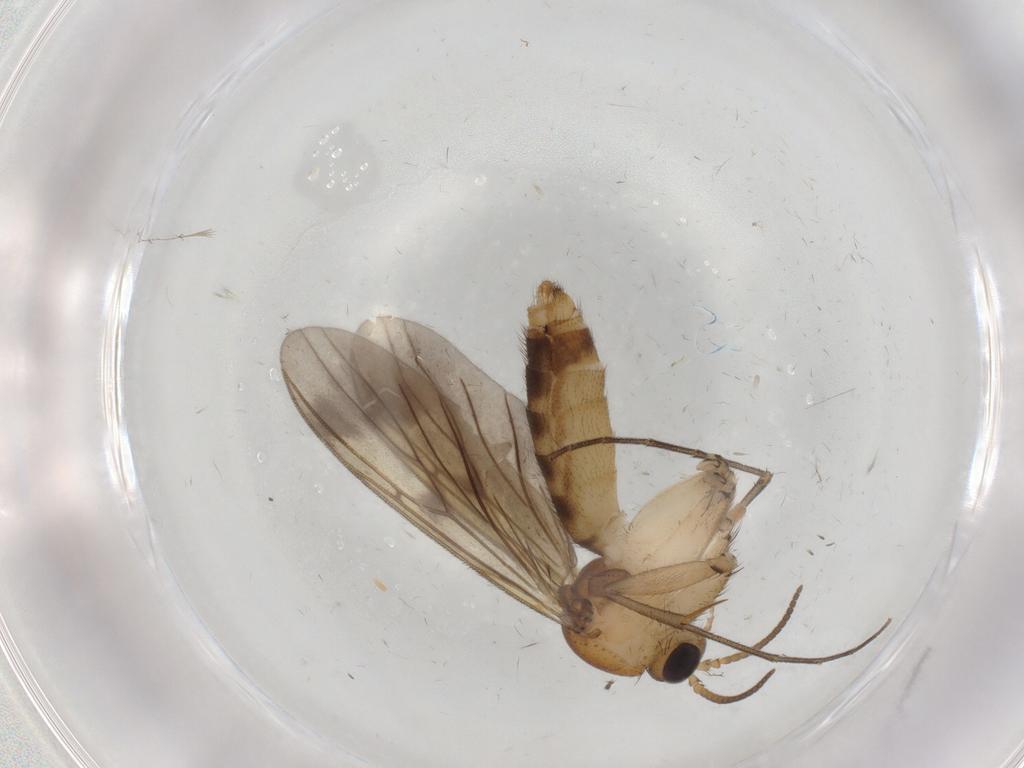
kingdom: Animalia
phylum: Arthropoda
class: Insecta
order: Diptera
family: Mycetophilidae
